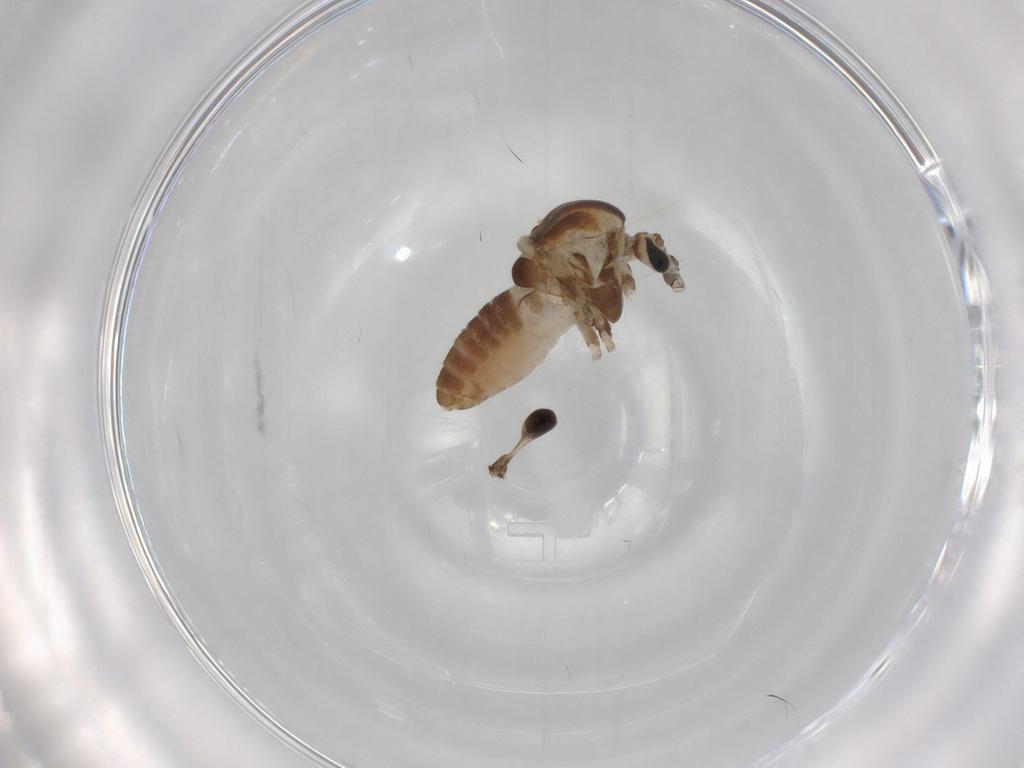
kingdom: Animalia
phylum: Arthropoda
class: Insecta
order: Diptera
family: Chironomidae
